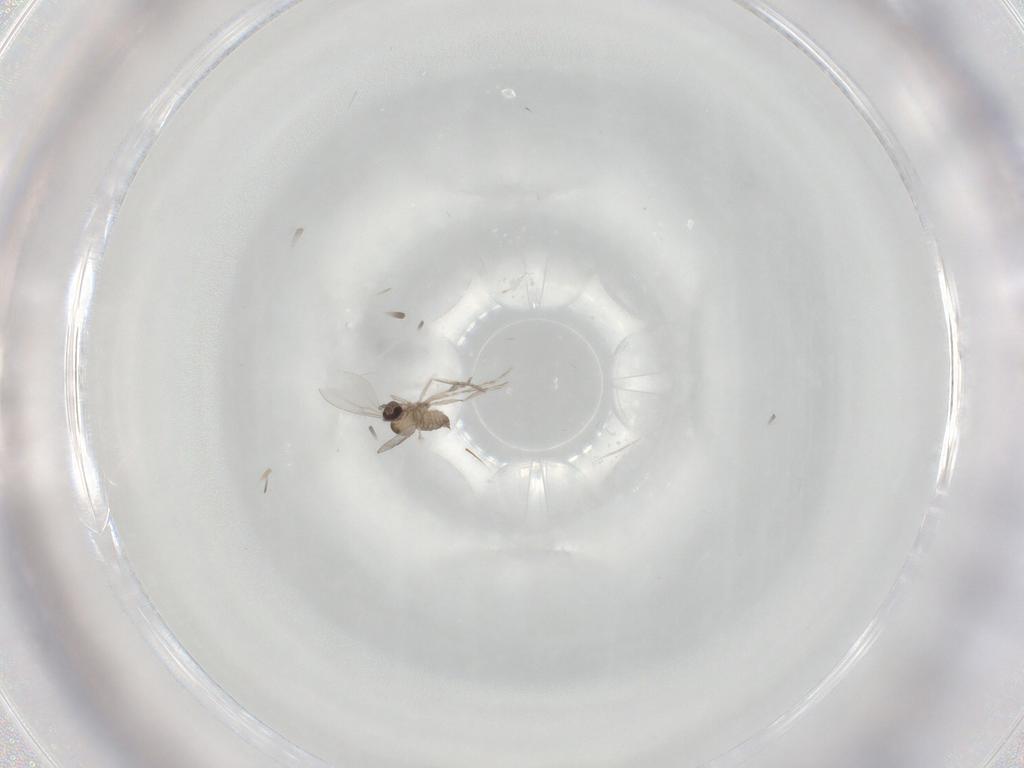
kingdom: Animalia
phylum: Arthropoda
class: Insecta
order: Diptera
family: Cecidomyiidae
